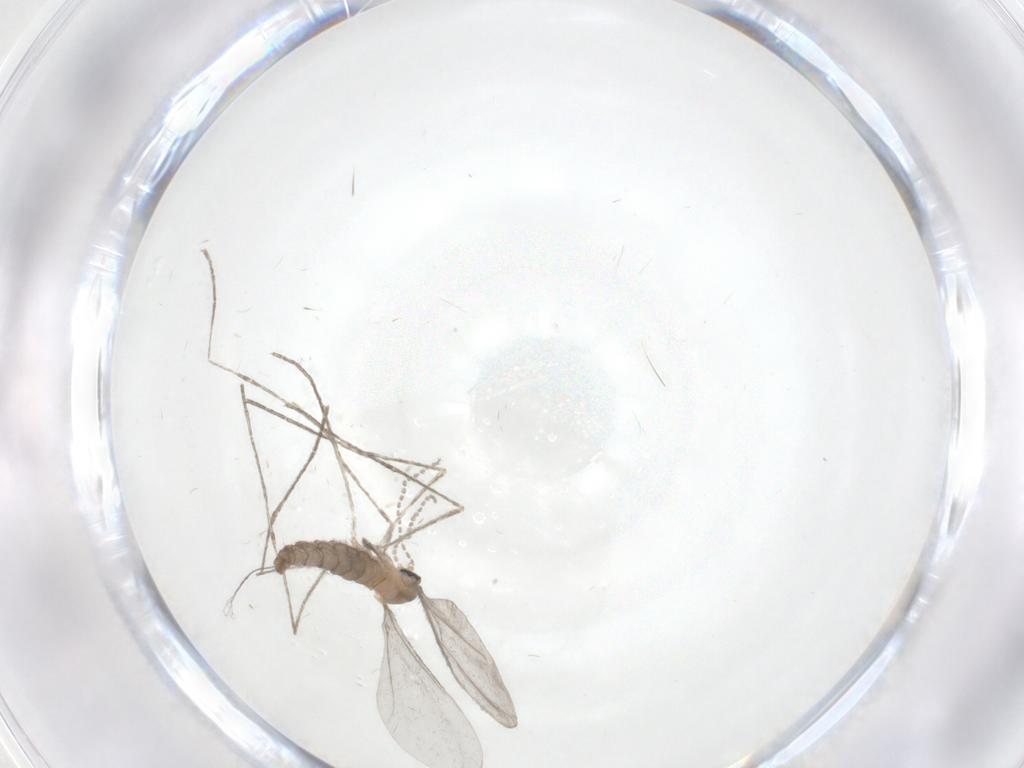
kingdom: Animalia
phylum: Arthropoda
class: Insecta
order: Diptera
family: Cecidomyiidae
